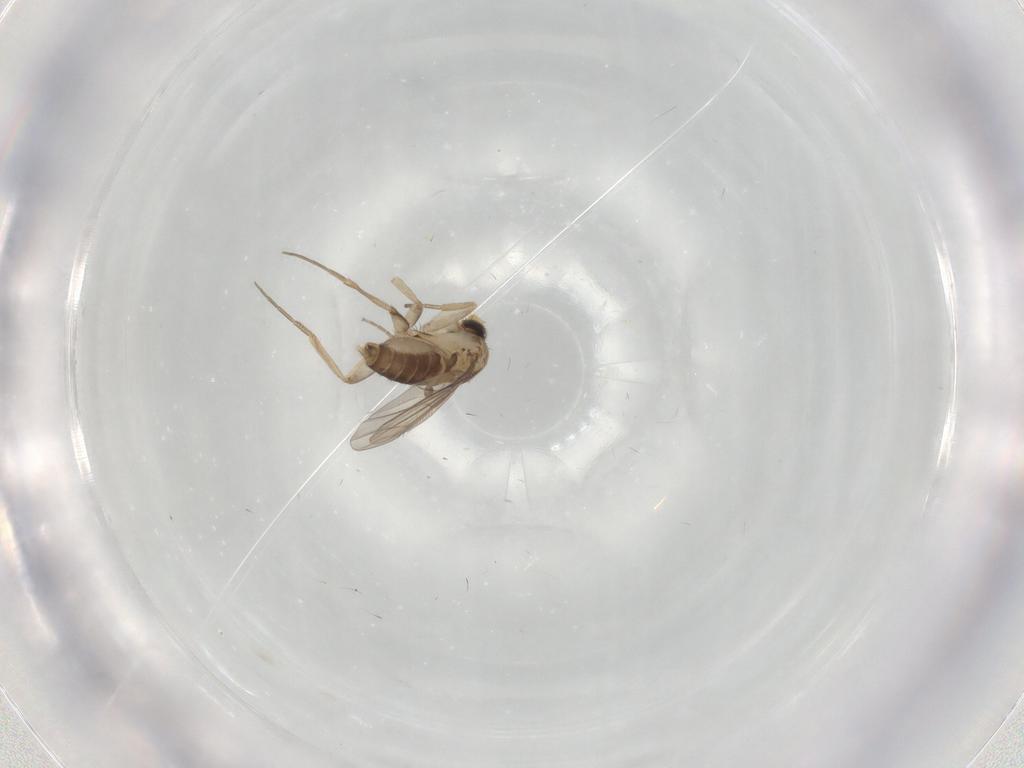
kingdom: Animalia
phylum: Arthropoda
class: Insecta
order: Diptera
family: Phoridae
